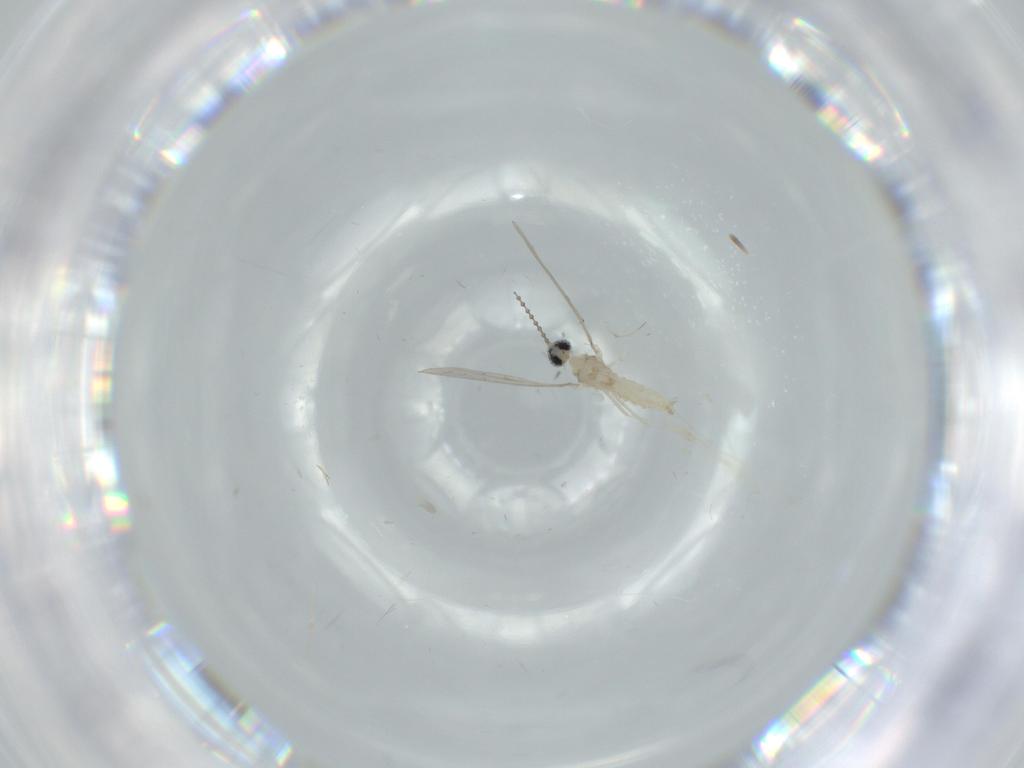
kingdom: Animalia
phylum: Arthropoda
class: Insecta
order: Diptera
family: Cecidomyiidae
